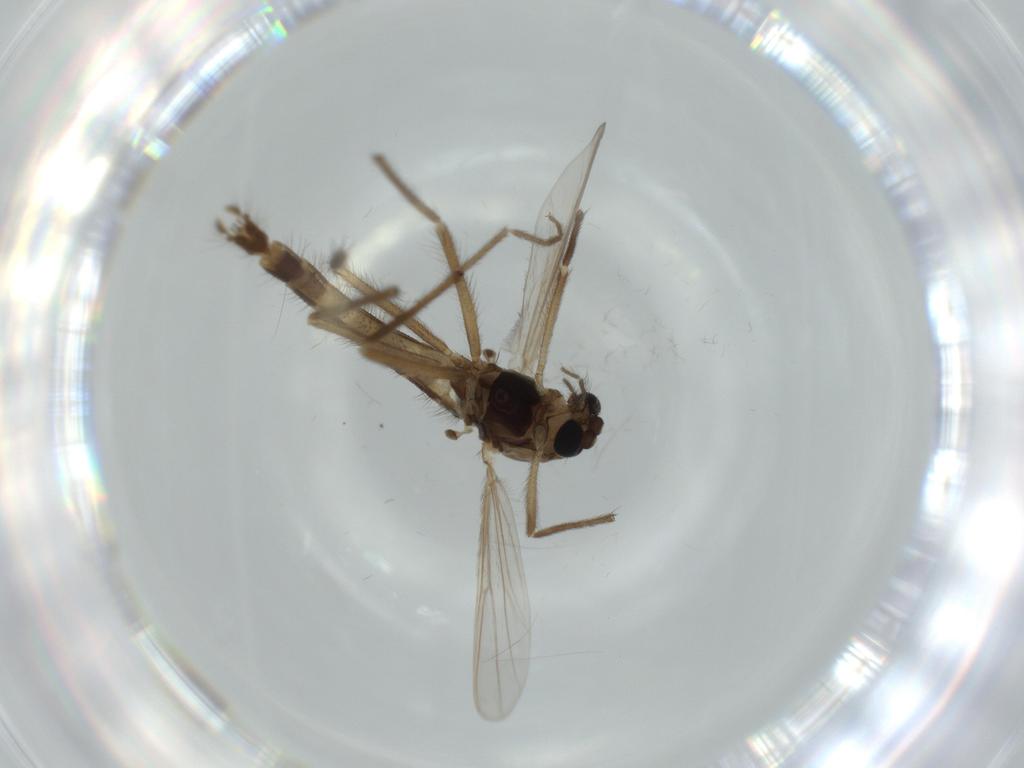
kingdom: Animalia
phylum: Arthropoda
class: Insecta
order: Diptera
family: Chironomidae
